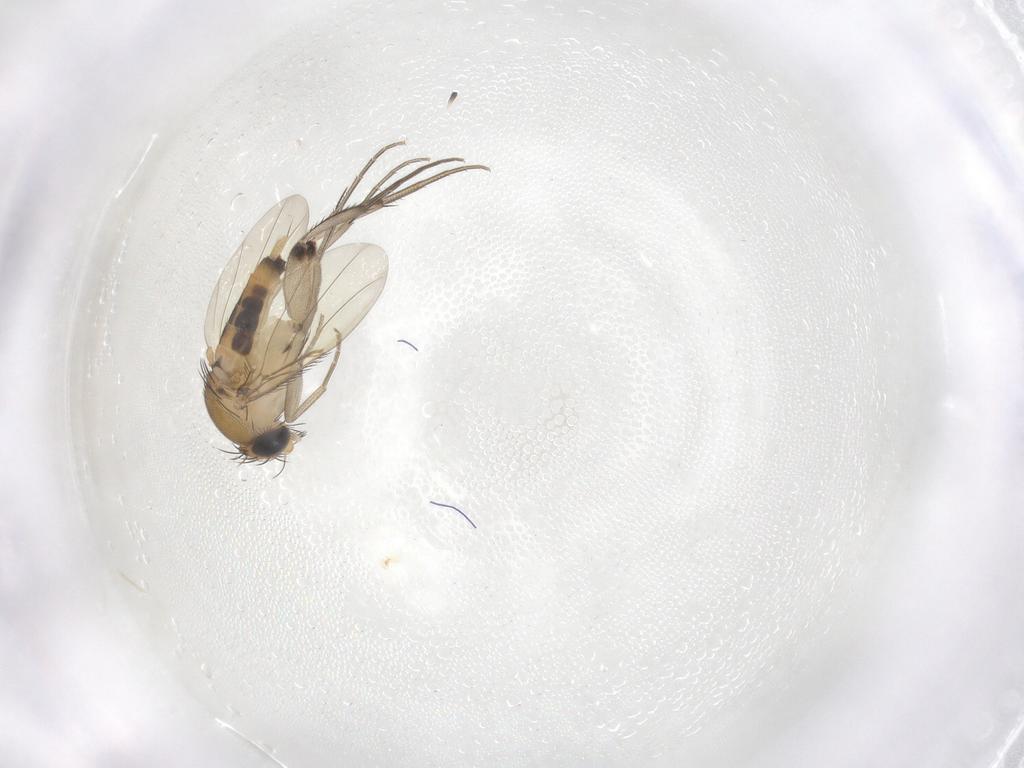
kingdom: Animalia
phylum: Arthropoda
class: Insecta
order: Diptera
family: Phoridae
